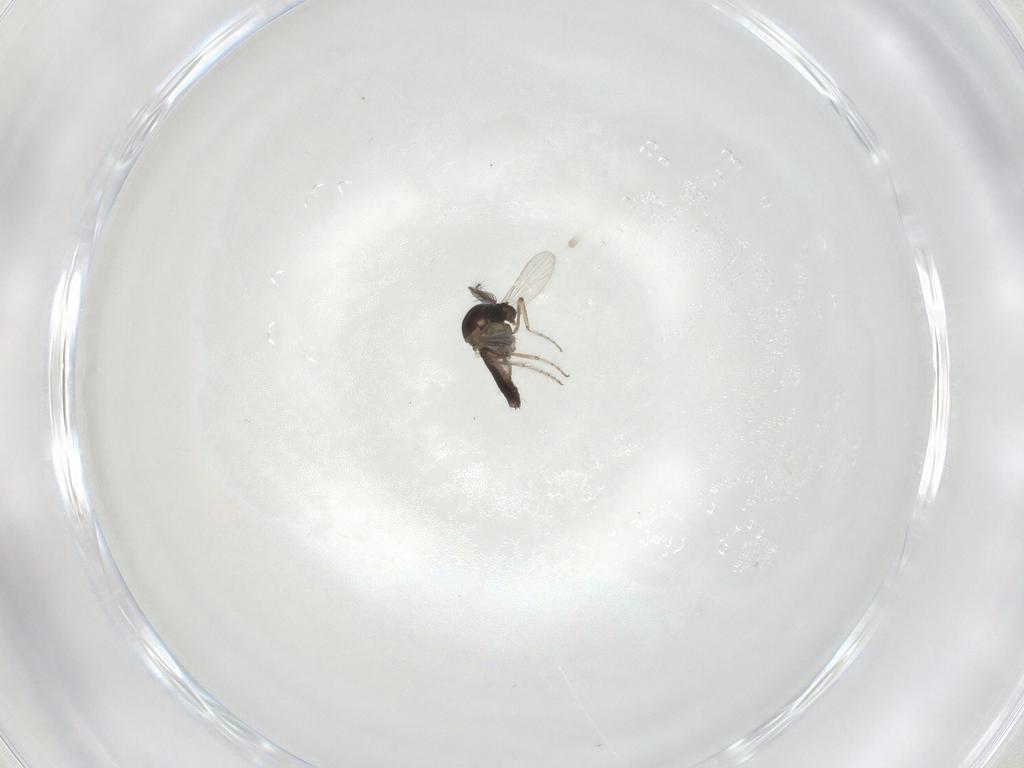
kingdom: Animalia
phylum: Arthropoda
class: Insecta
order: Diptera
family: Ceratopogonidae
